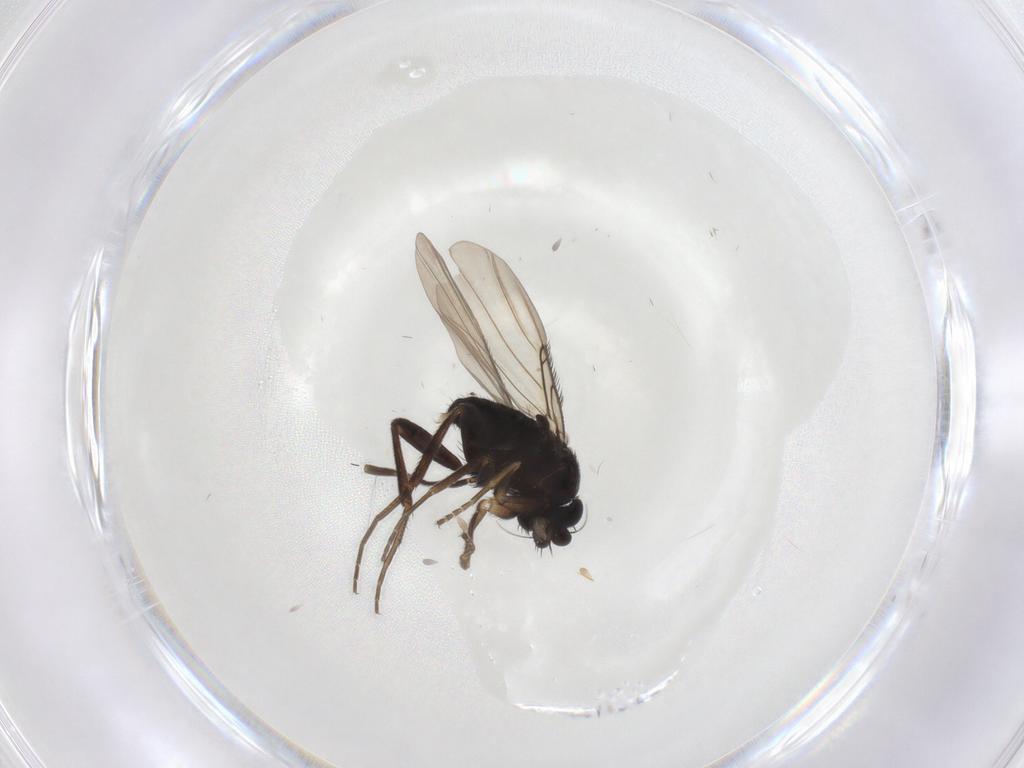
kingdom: Animalia
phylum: Arthropoda
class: Insecta
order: Diptera
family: Phoridae
